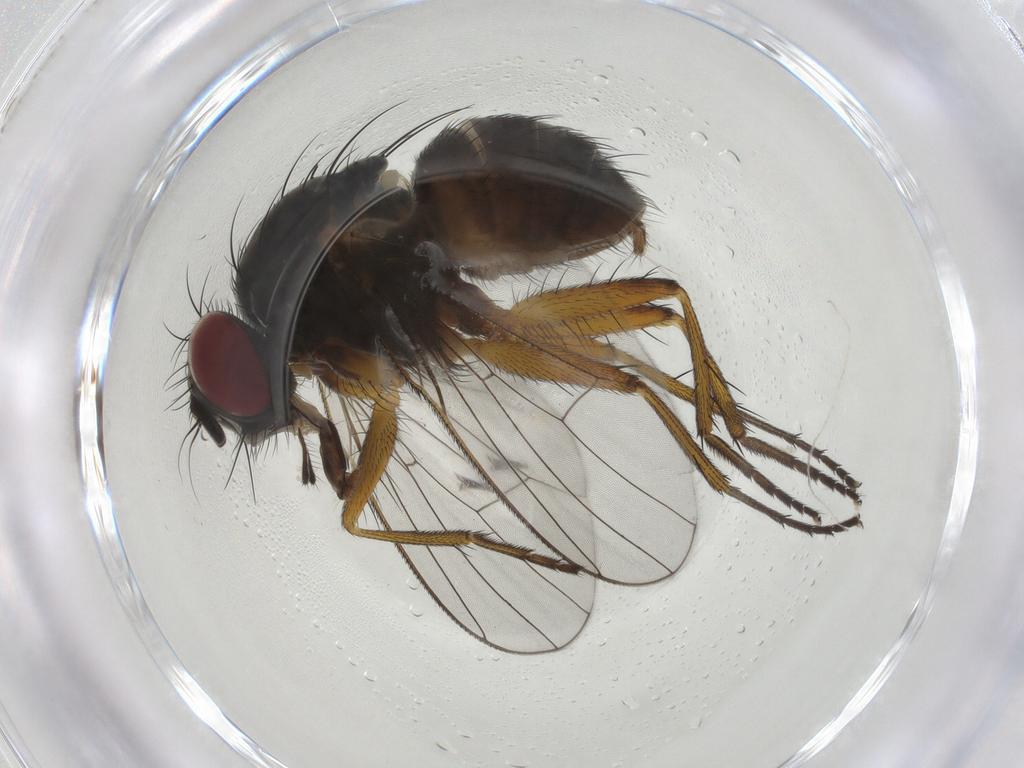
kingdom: Animalia
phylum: Arthropoda
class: Insecta
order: Diptera
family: Muscidae
